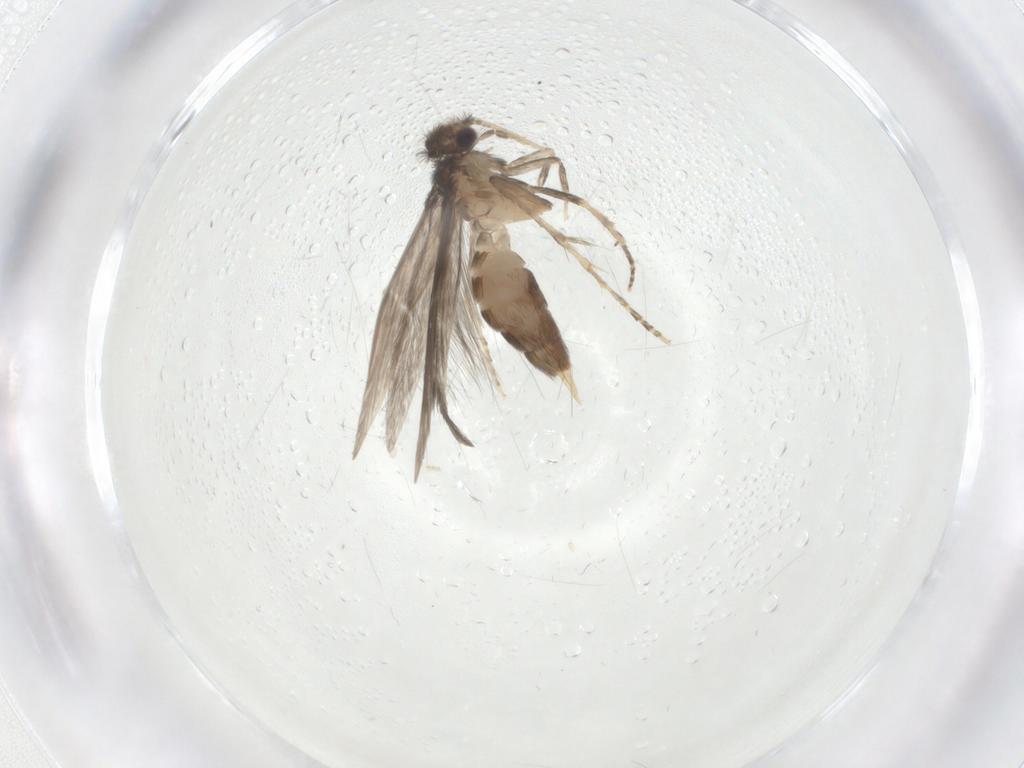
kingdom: Animalia
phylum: Arthropoda
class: Insecta
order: Trichoptera
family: Hydroptilidae
